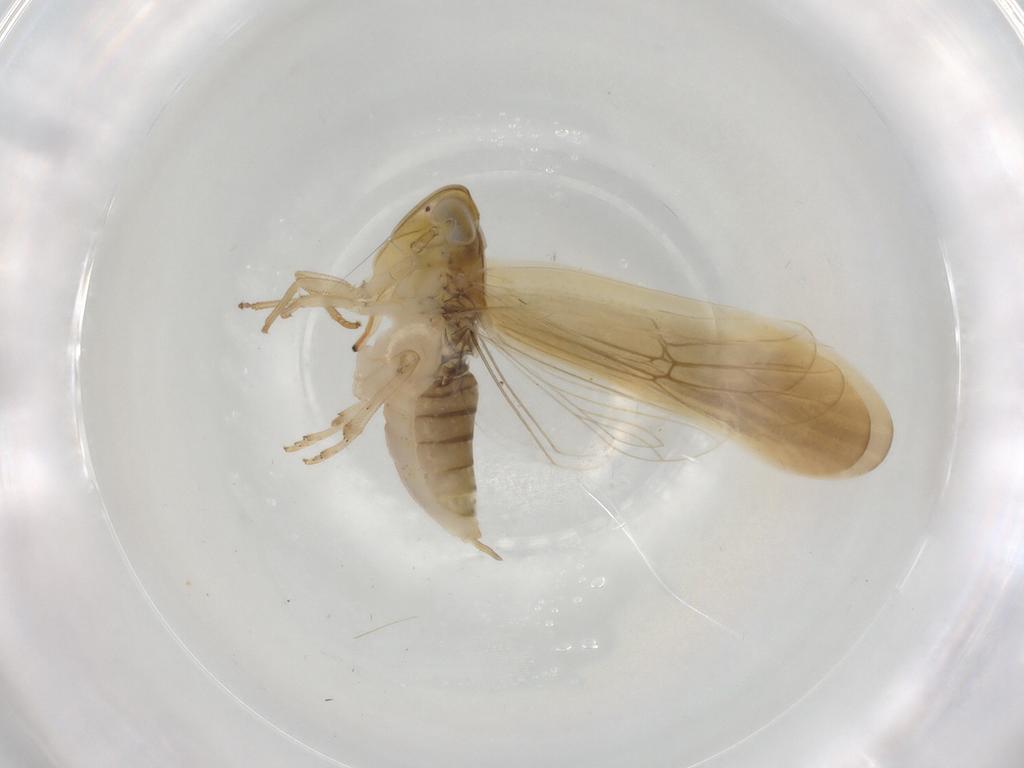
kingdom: Animalia
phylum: Arthropoda
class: Insecta
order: Hemiptera
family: Delphacidae
